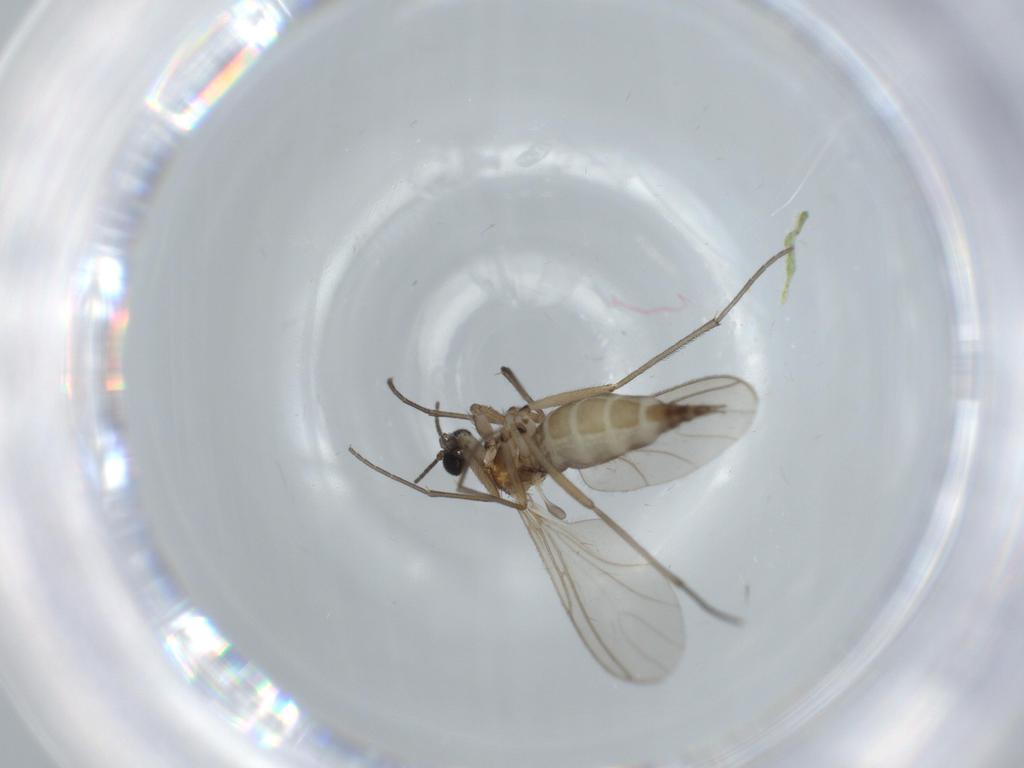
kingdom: Animalia
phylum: Arthropoda
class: Insecta
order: Diptera
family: Sciaridae
